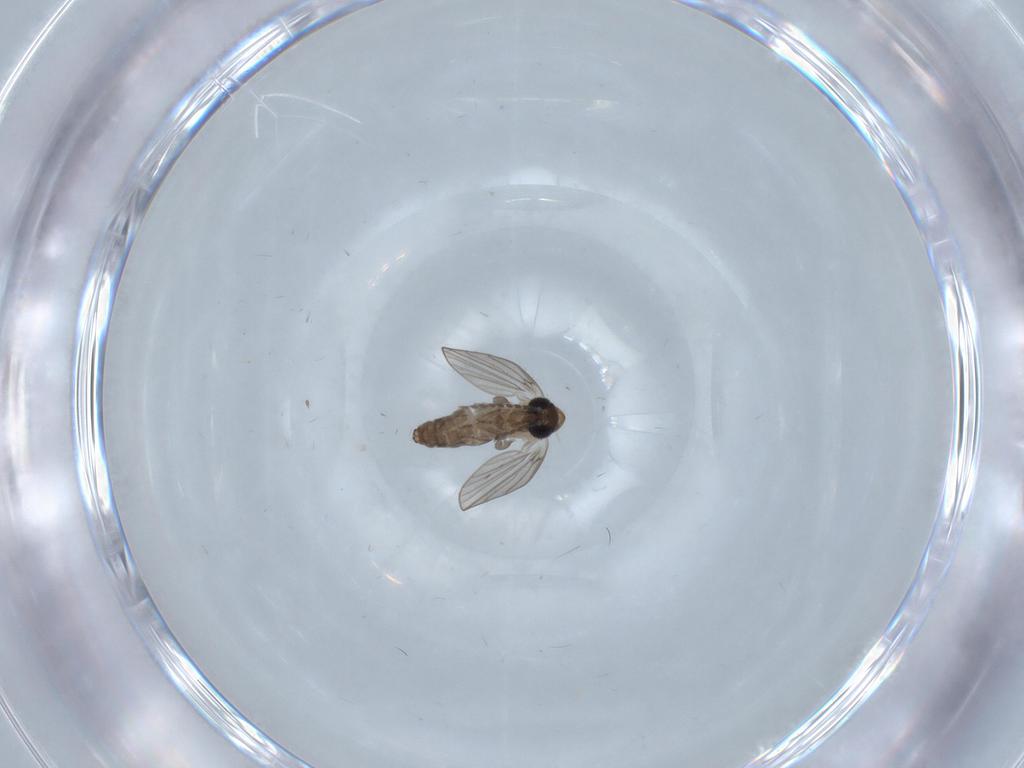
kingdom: Animalia
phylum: Arthropoda
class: Insecta
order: Diptera
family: Psychodidae
